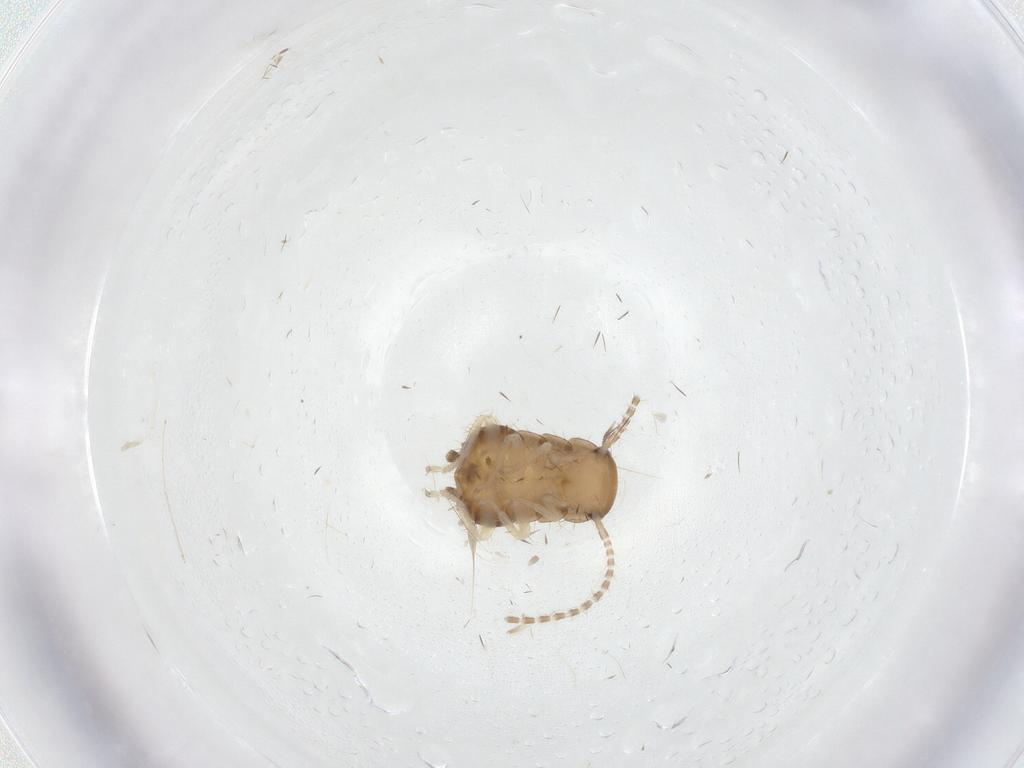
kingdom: Animalia
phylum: Arthropoda
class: Insecta
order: Blattodea
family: Ectobiidae
